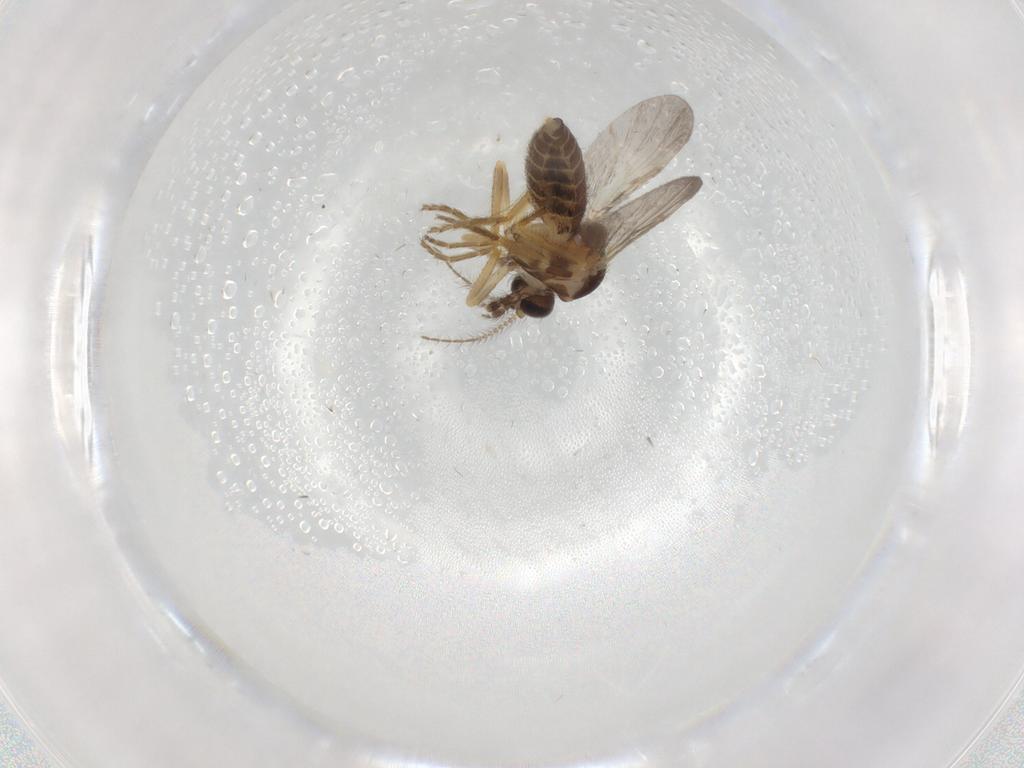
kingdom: Animalia
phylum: Arthropoda
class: Insecta
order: Diptera
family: Ceratopogonidae
